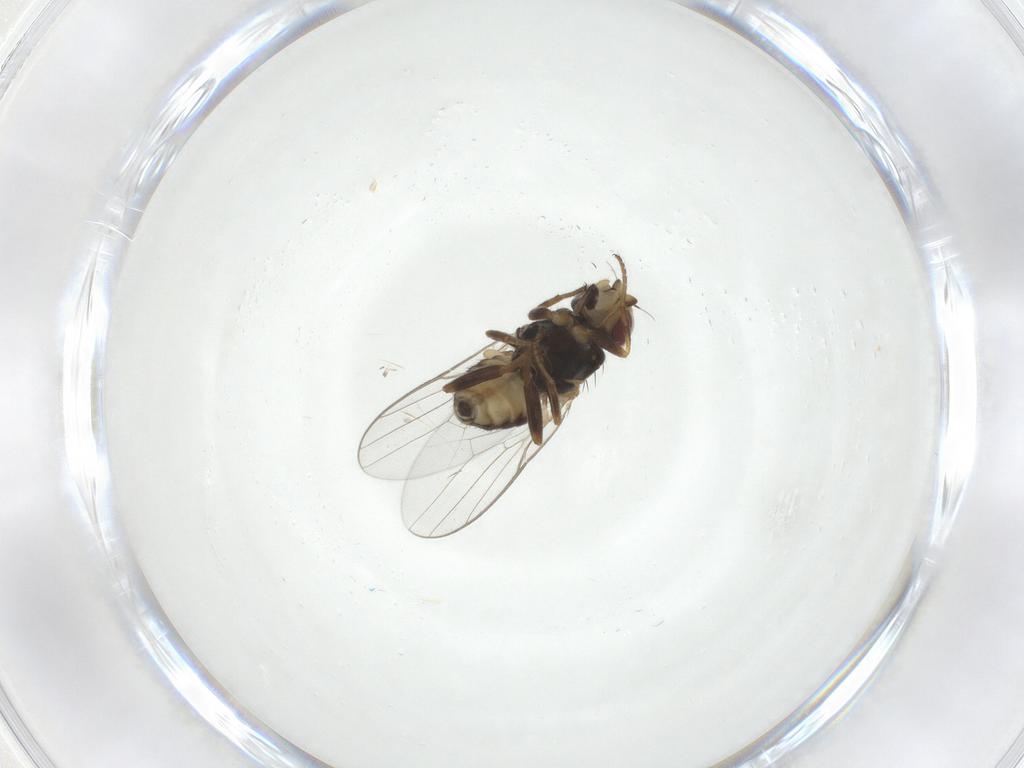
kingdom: Animalia
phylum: Arthropoda
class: Insecta
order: Diptera
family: Chloropidae
